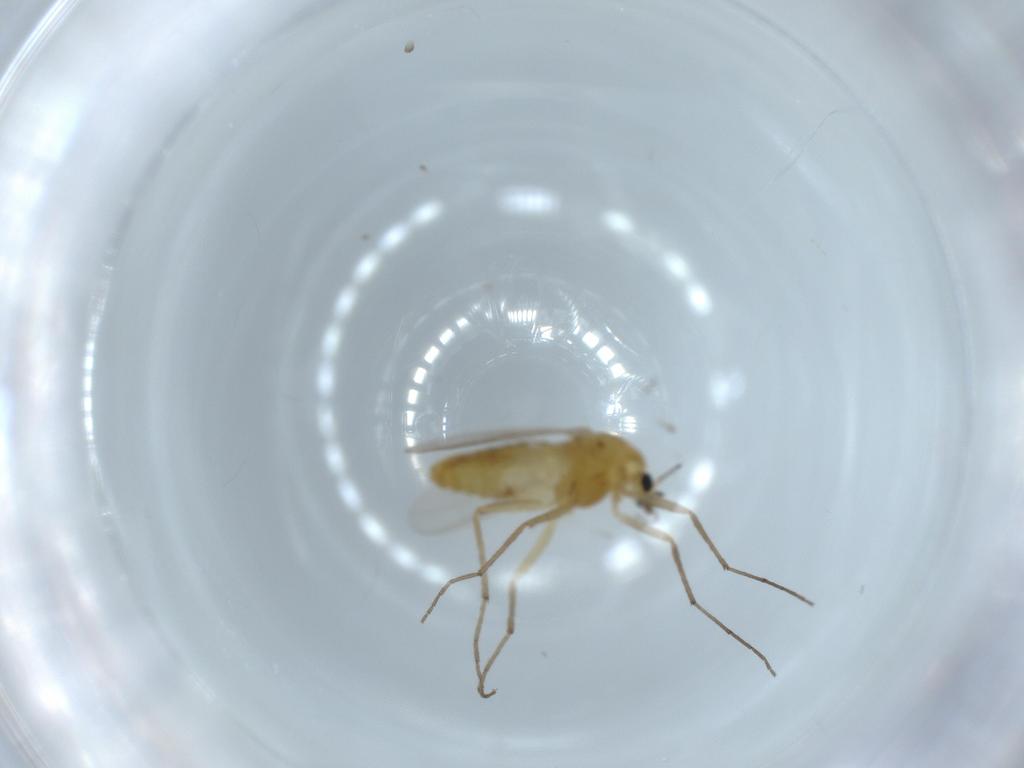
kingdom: Animalia
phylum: Arthropoda
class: Insecta
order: Diptera
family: Chironomidae
